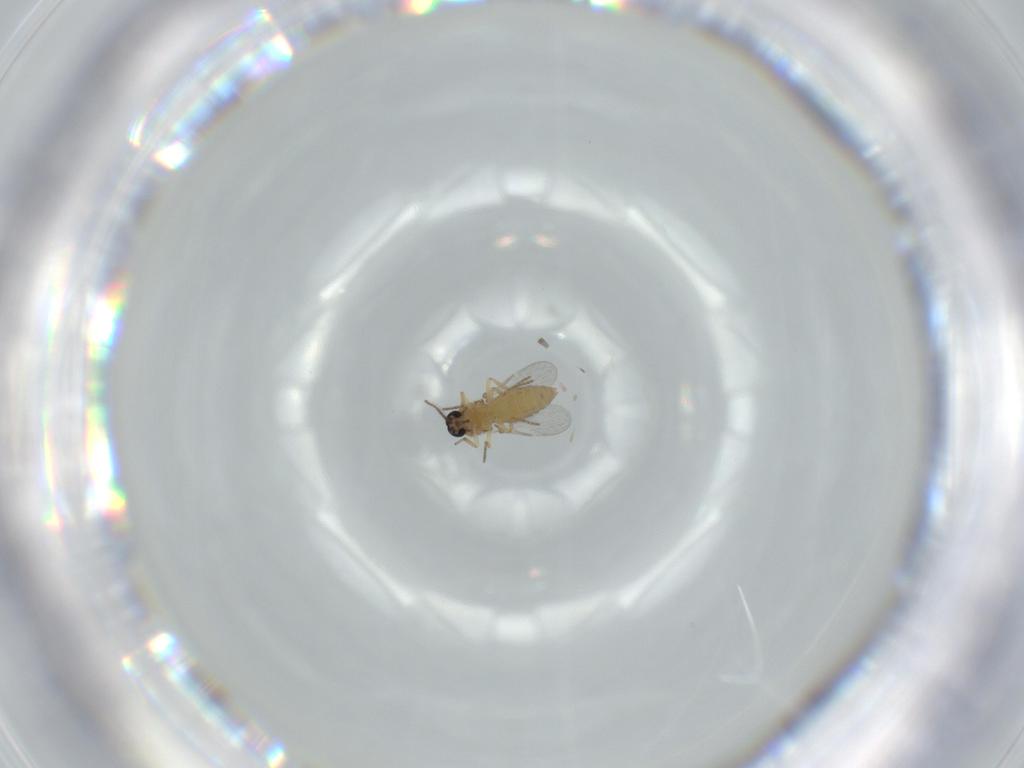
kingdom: Animalia
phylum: Arthropoda
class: Insecta
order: Diptera
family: Ceratopogonidae
